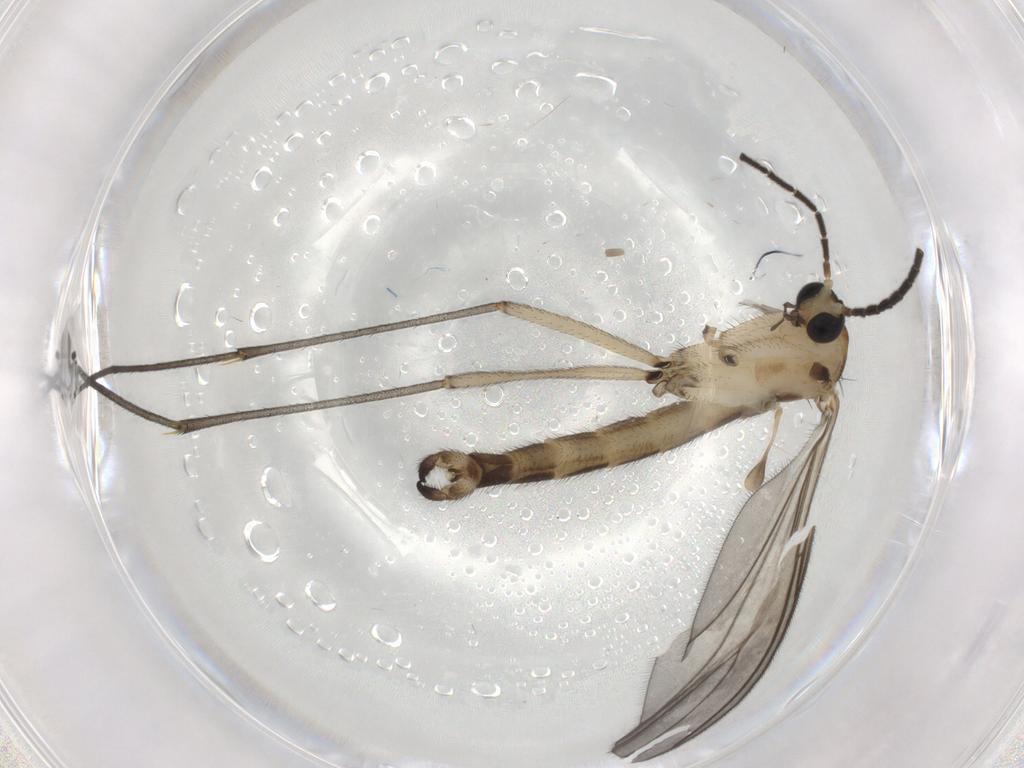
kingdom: Animalia
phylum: Arthropoda
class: Insecta
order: Diptera
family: Sciaridae
